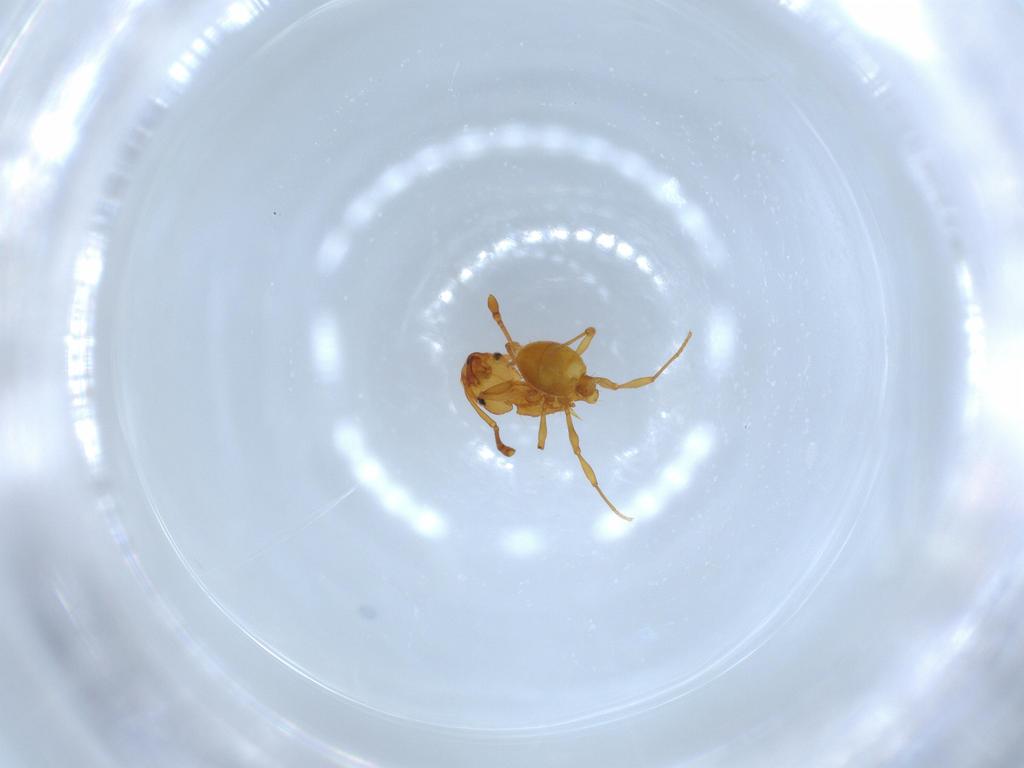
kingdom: Animalia
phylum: Arthropoda
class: Insecta
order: Hymenoptera
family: Formicidae
